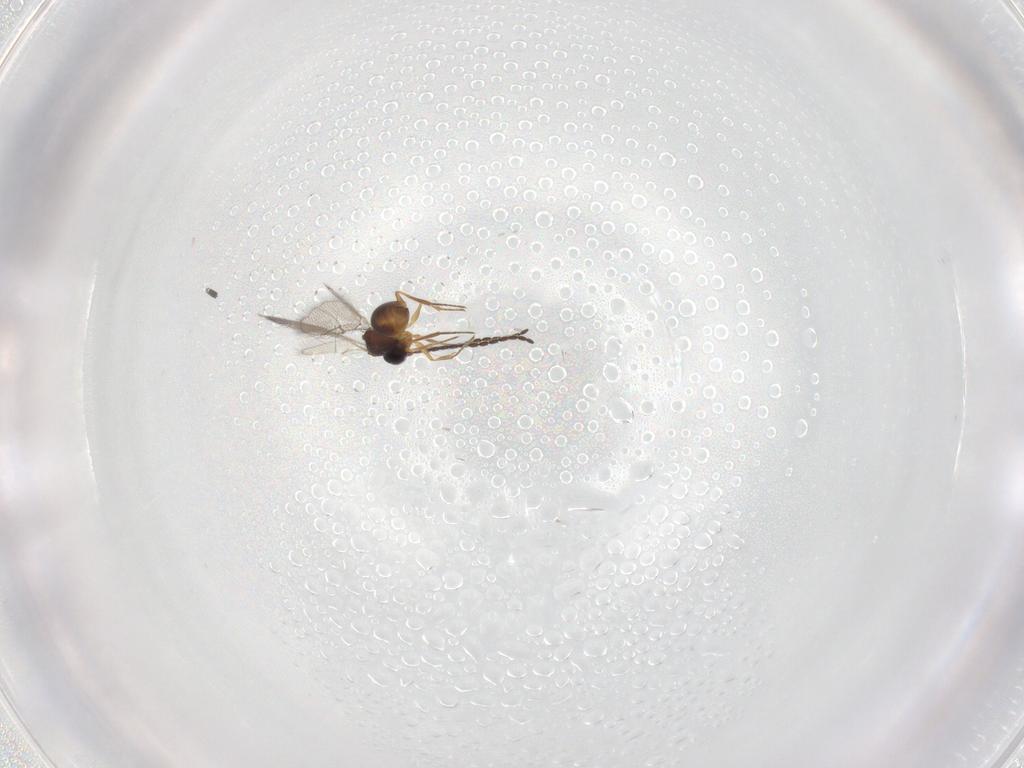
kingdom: Animalia
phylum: Arthropoda
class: Insecta
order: Hymenoptera
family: Figitidae
